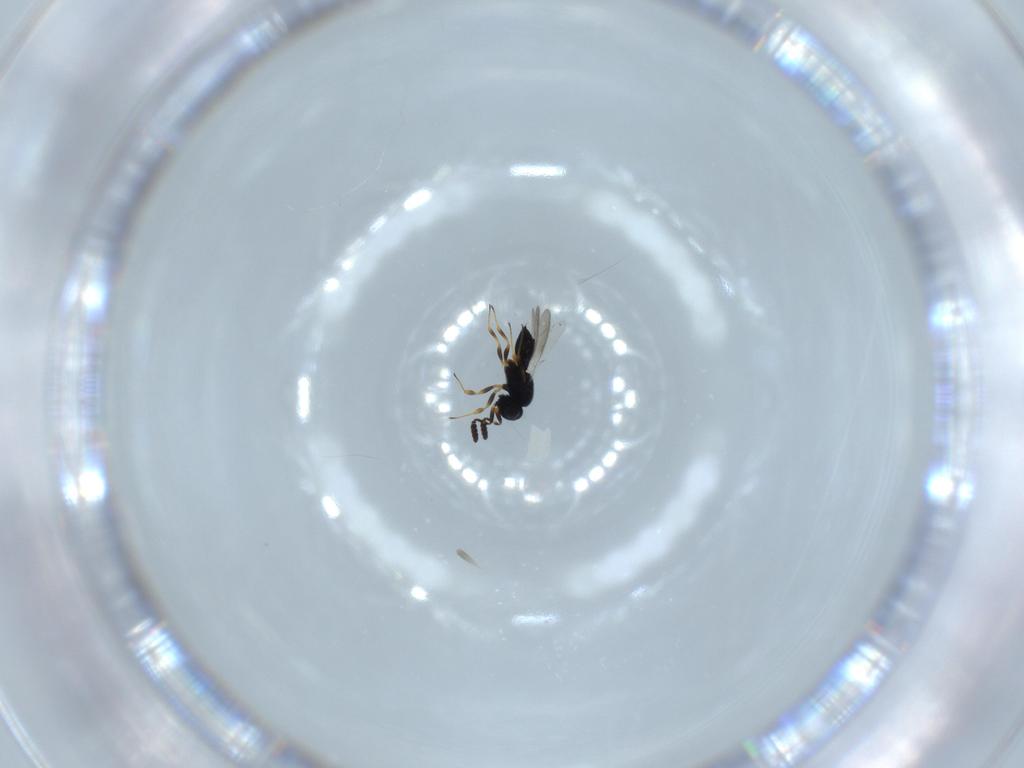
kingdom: Animalia
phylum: Arthropoda
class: Insecta
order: Hymenoptera
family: Scelionidae
